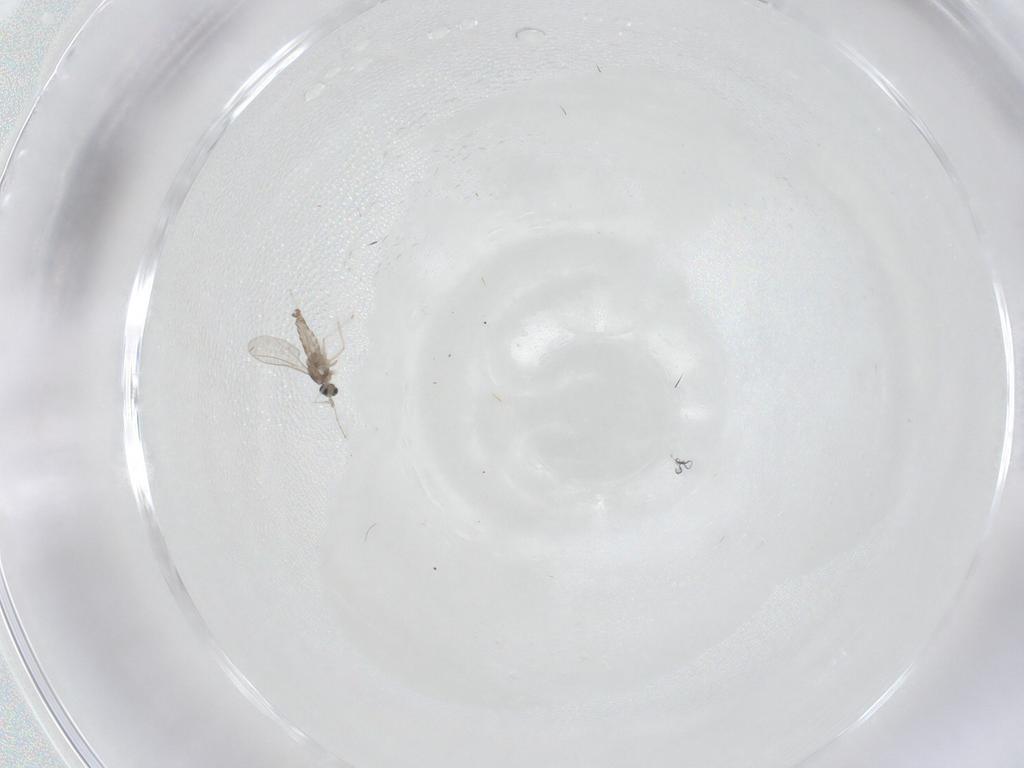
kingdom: Animalia
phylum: Arthropoda
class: Insecta
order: Diptera
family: Cecidomyiidae
